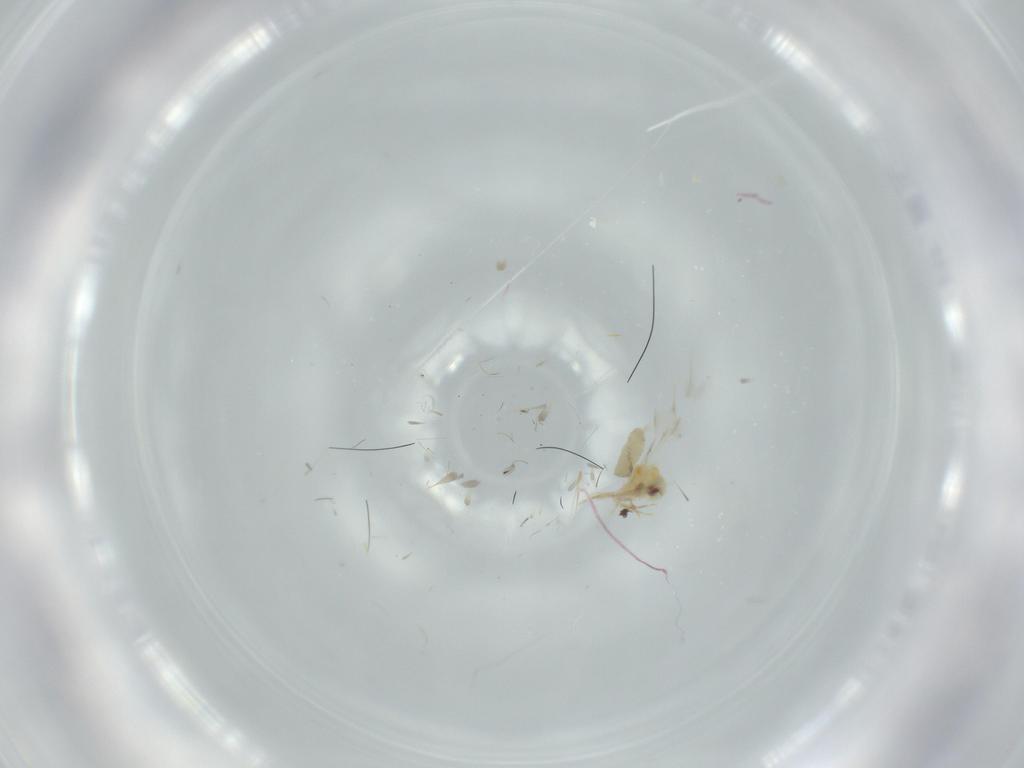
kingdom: Animalia
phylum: Arthropoda
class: Insecta
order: Hemiptera
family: Aleyrodidae
